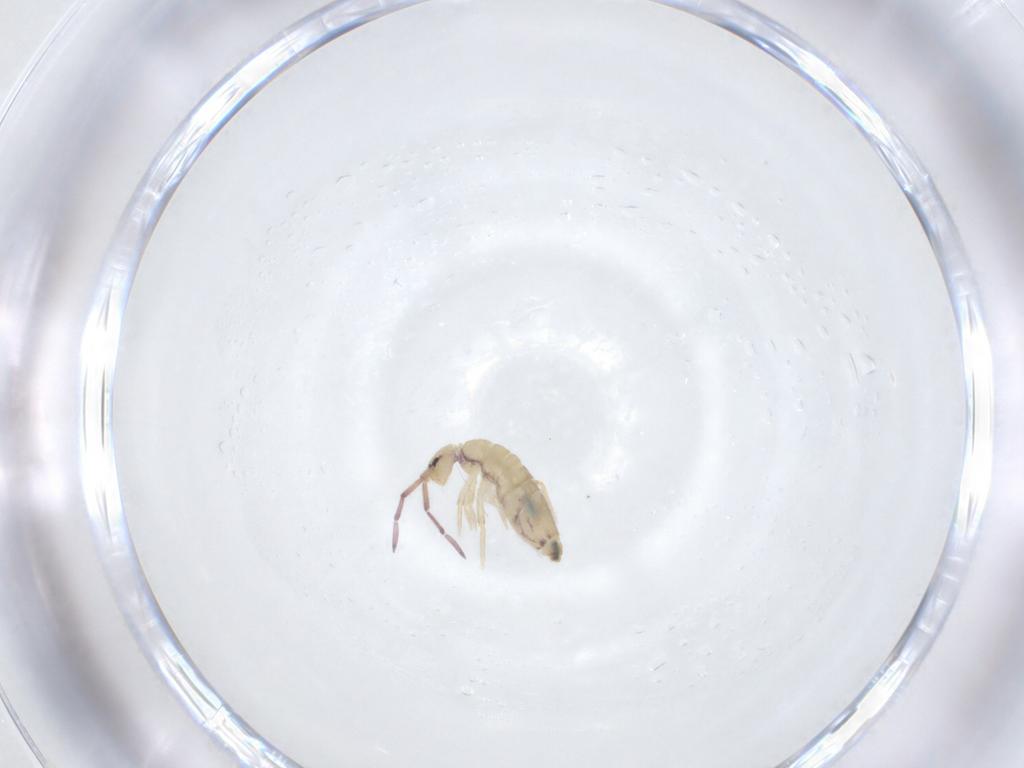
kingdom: Animalia
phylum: Arthropoda
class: Collembola
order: Entomobryomorpha
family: Entomobryidae
